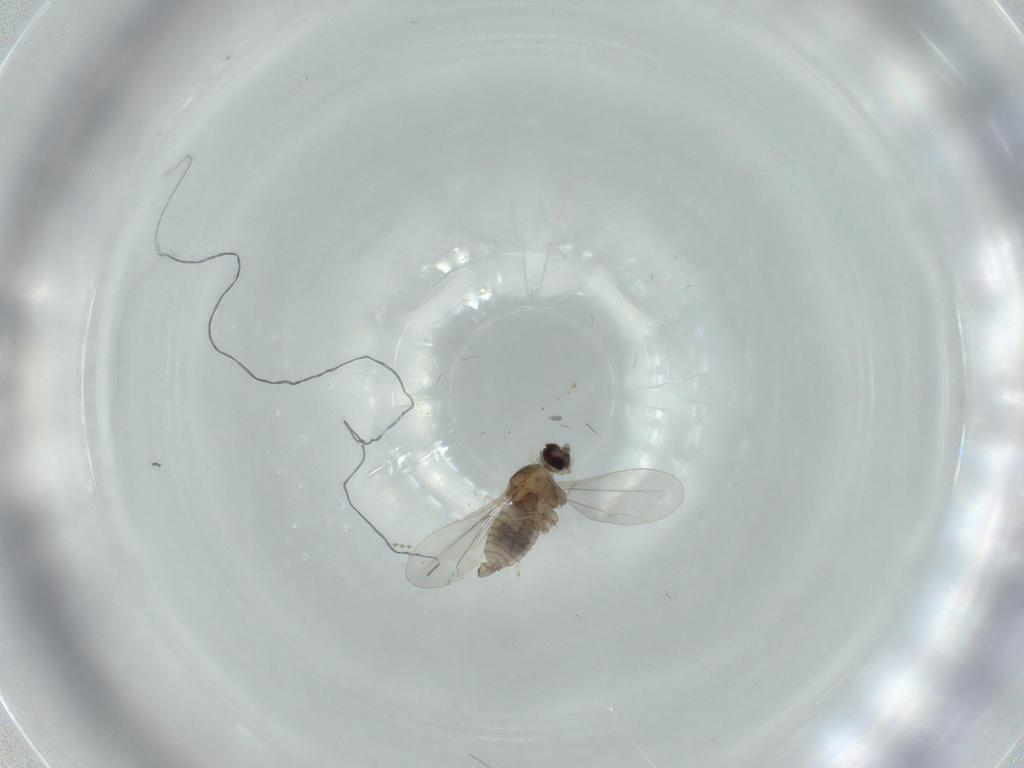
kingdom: Animalia
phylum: Arthropoda
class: Insecta
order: Diptera
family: Cecidomyiidae
